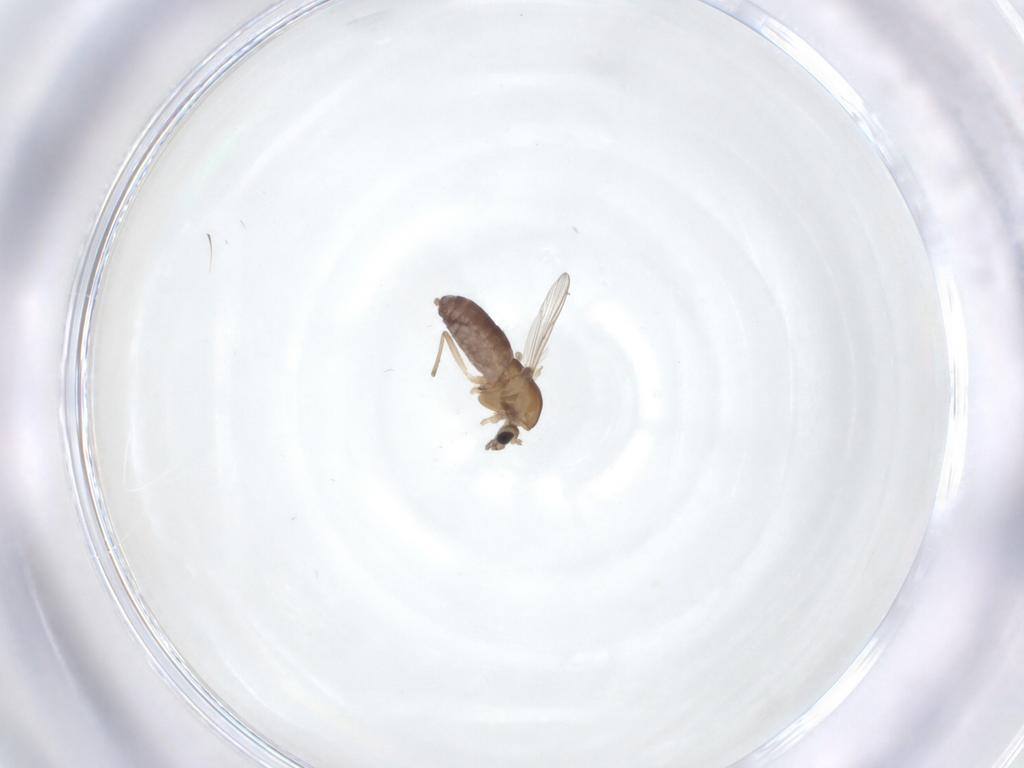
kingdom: Animalia
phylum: Arthropoda
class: Insecta
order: Diptera
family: Chironomidae
